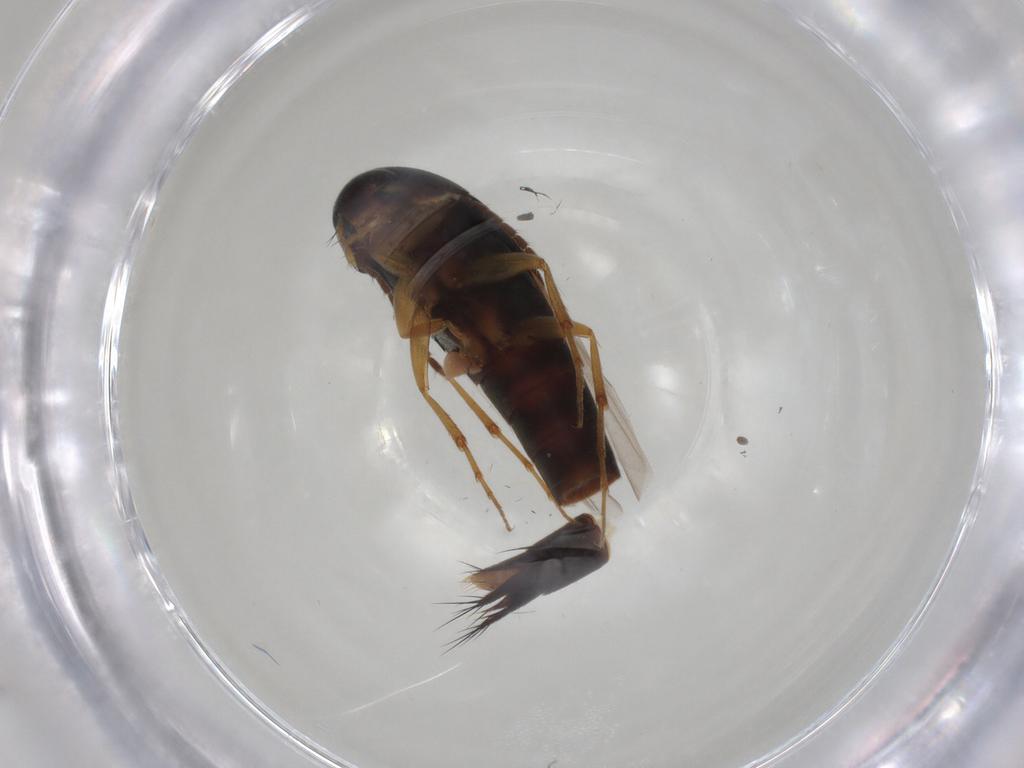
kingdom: Animalia
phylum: Arthropoda
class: Insecta
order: Coleoptera
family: Staphylinidae
